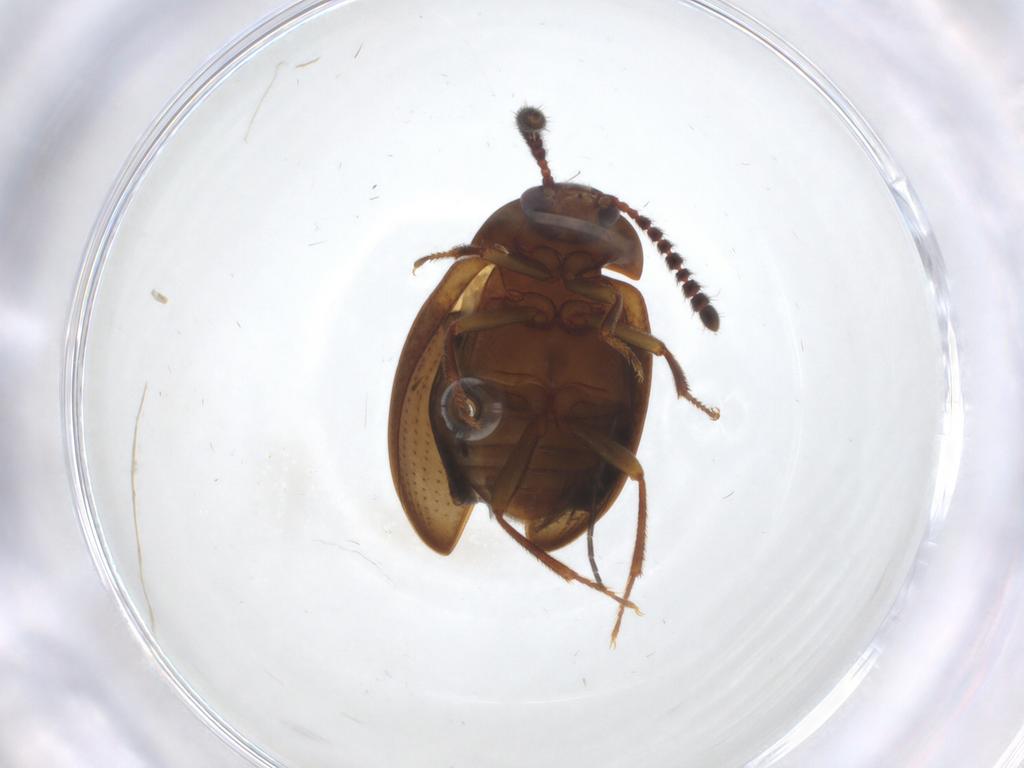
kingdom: Animalia
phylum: Arthropoda
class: Insecta
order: Coleoptera
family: Leiodidae
